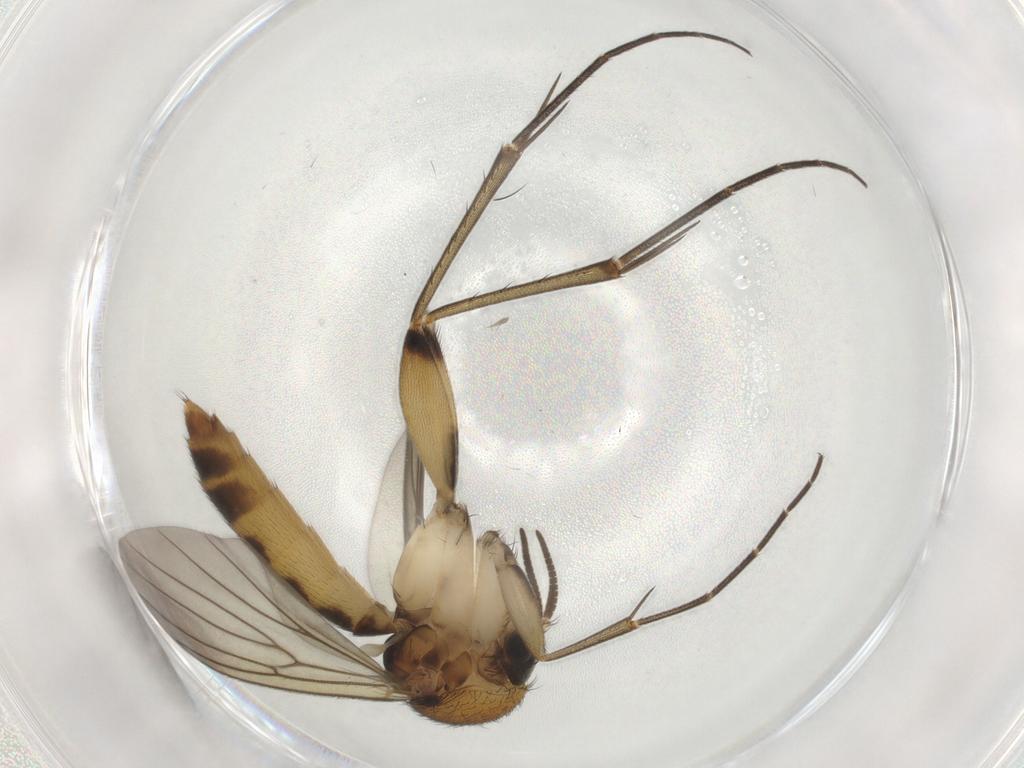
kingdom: Animalia
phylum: Arthropoda
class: Insecta
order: Diptera
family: Mycetophilidae
